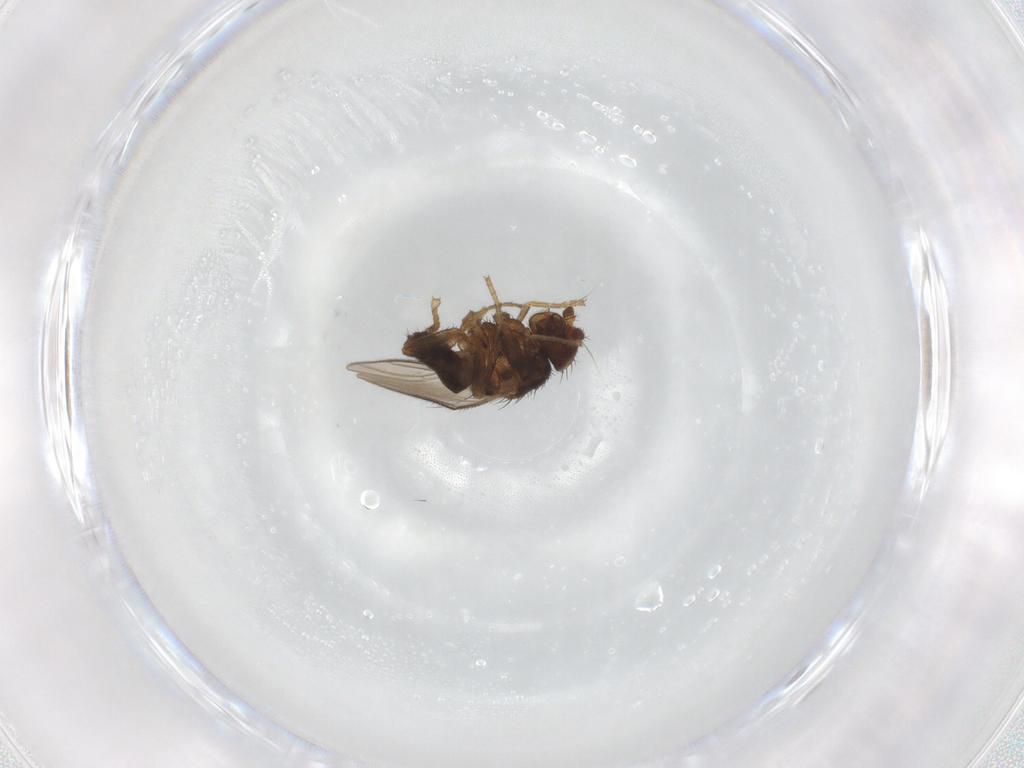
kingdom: Animalia
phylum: Arthropoda
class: Insecta
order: Diptera
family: Sphaeroceridae
